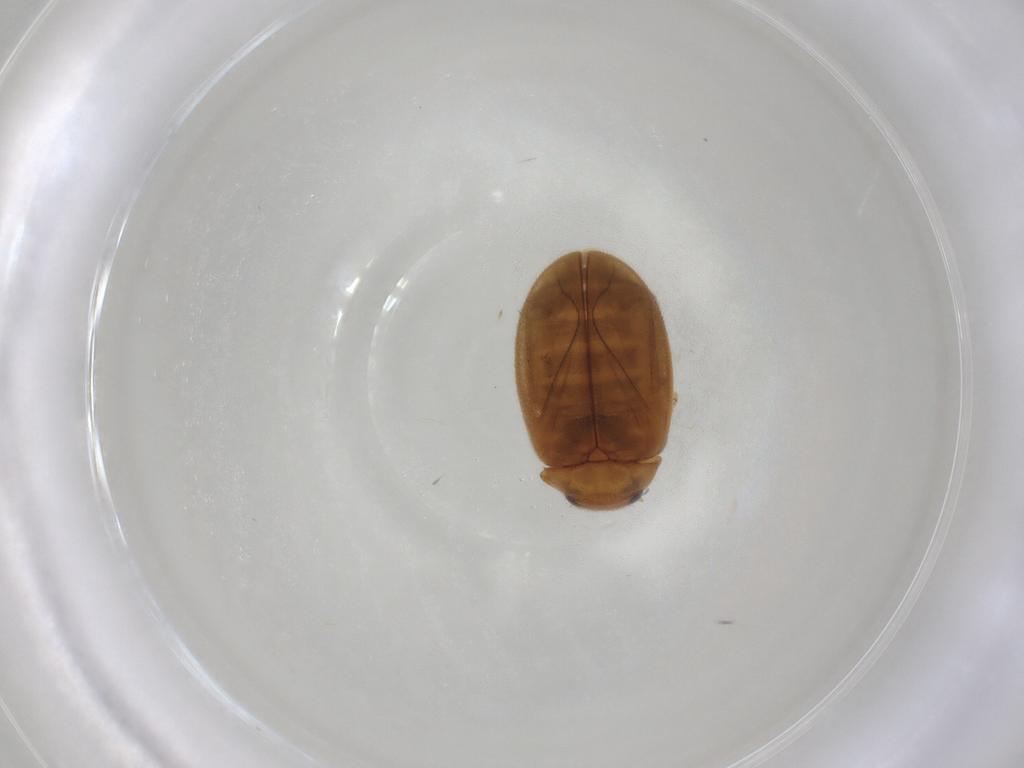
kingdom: Animalia
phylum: Arthropoda
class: Insecta
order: Coleoptera
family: Scirtidae
